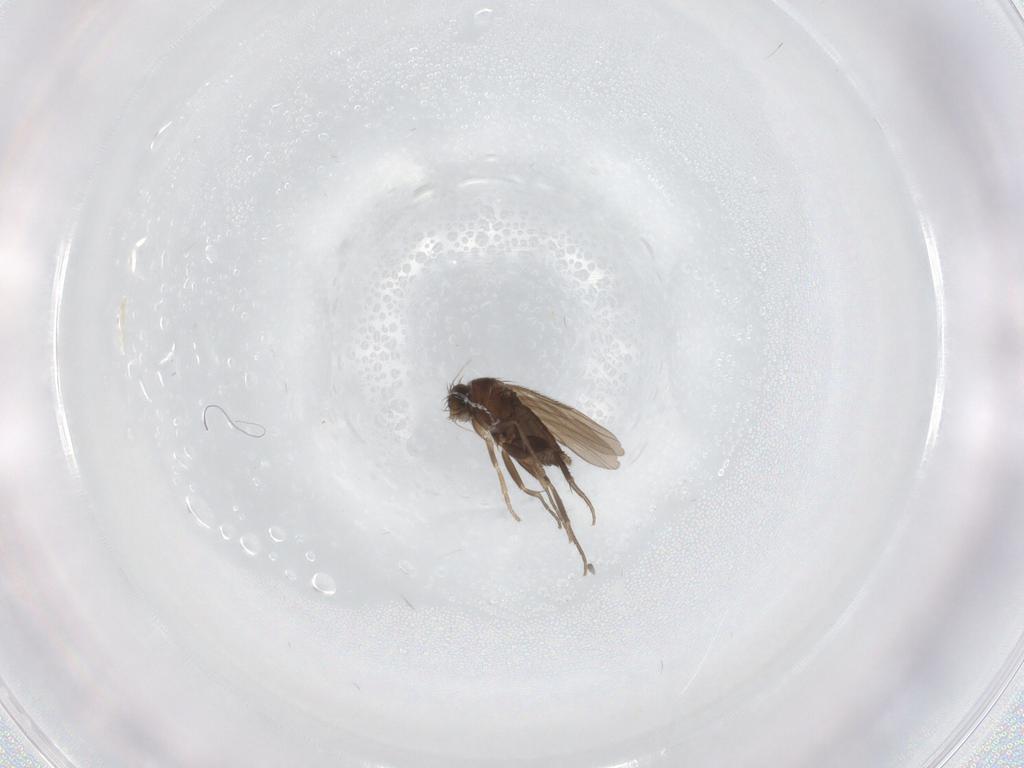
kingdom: Animalia
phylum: Arthropoda
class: Insecta
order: Diptera
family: Phoridae
